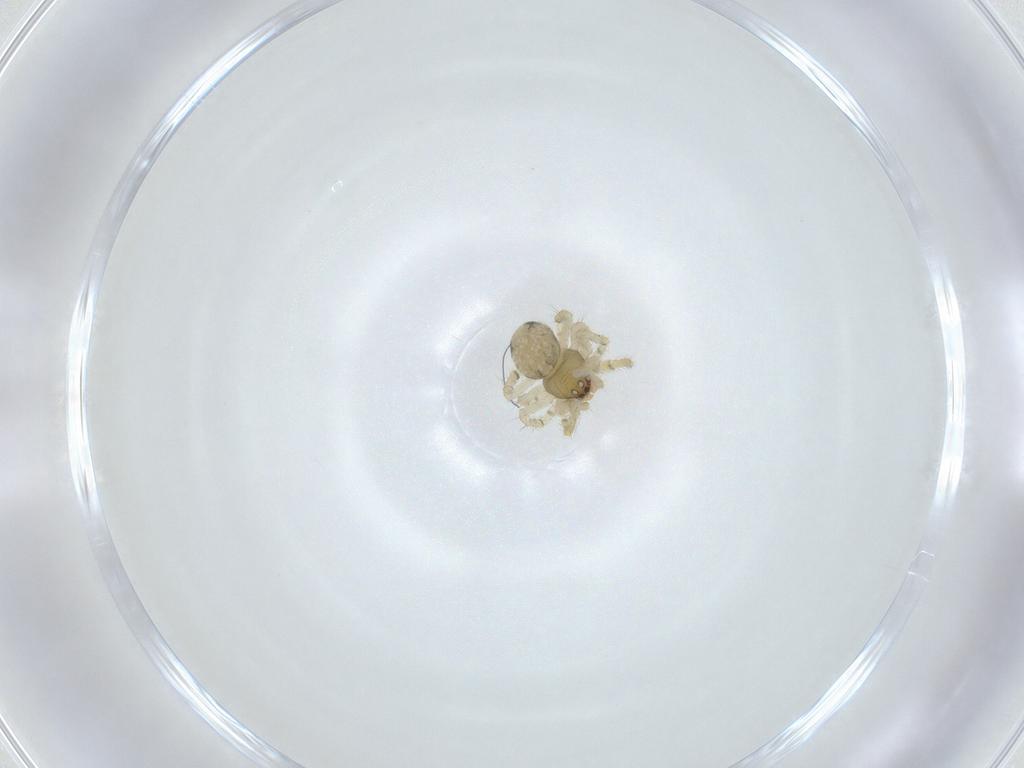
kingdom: Animalia
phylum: Arthropoda
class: Arachnida
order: Araneae
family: Theridiidae
